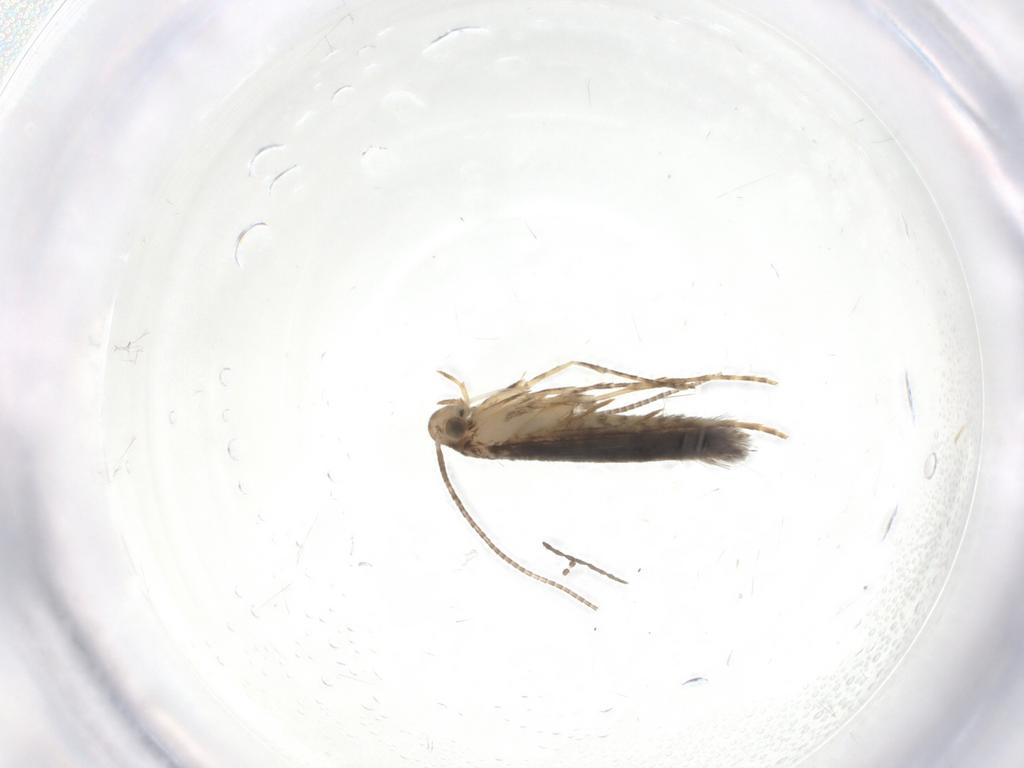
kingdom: Animalia
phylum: Arthropoda
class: Insecta
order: Lepidoptera
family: Gracillariidae
